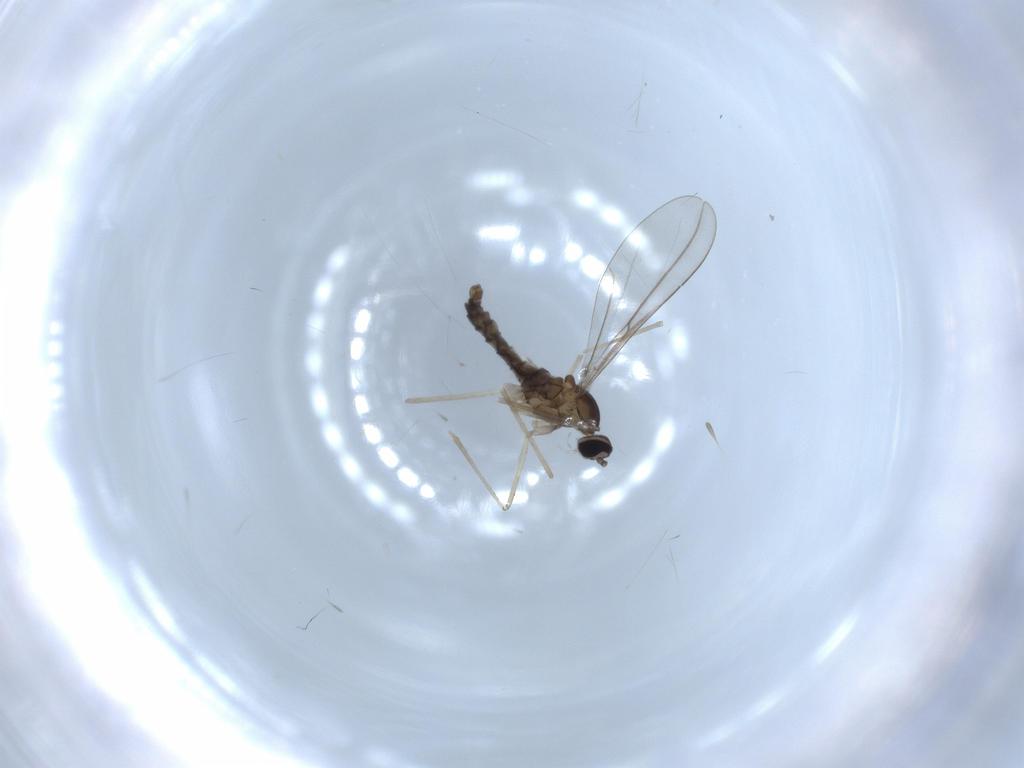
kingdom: Animalia
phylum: Arthropoda
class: Insecta
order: Diptera
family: Cecidomyiidae
